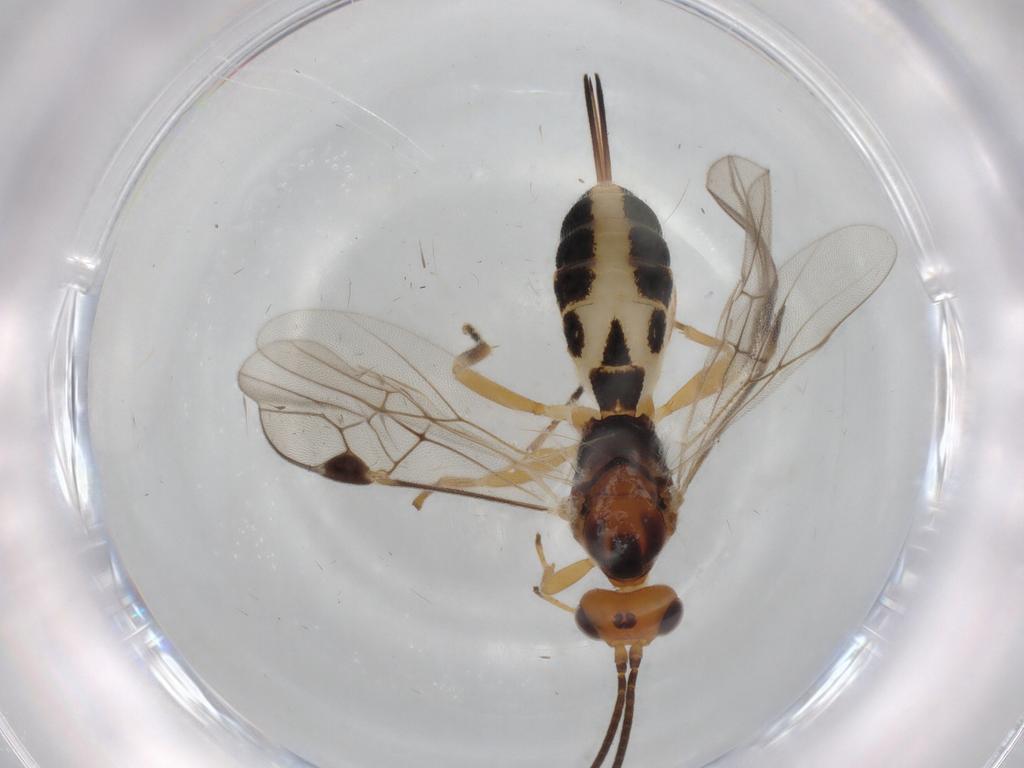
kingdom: Animalia
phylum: Arthropoda
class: Insecta
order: Hymenoptera
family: Braconidae
